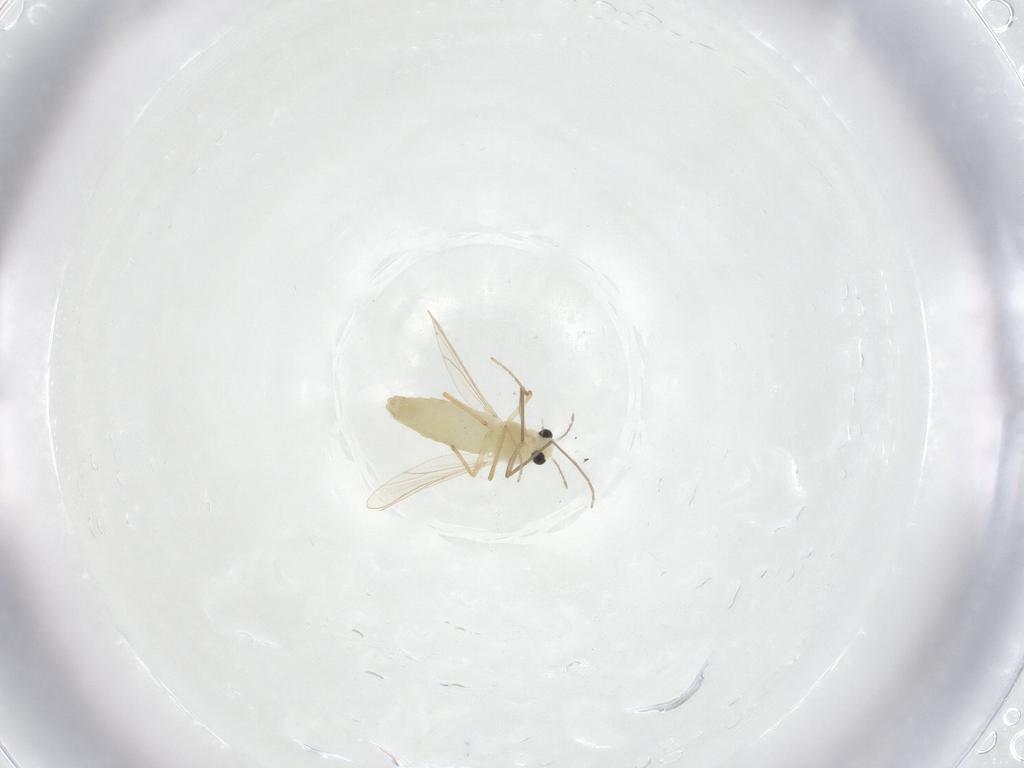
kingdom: Animalia
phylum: Arthropoda
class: Insecta
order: Diptera
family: Chironomidae
